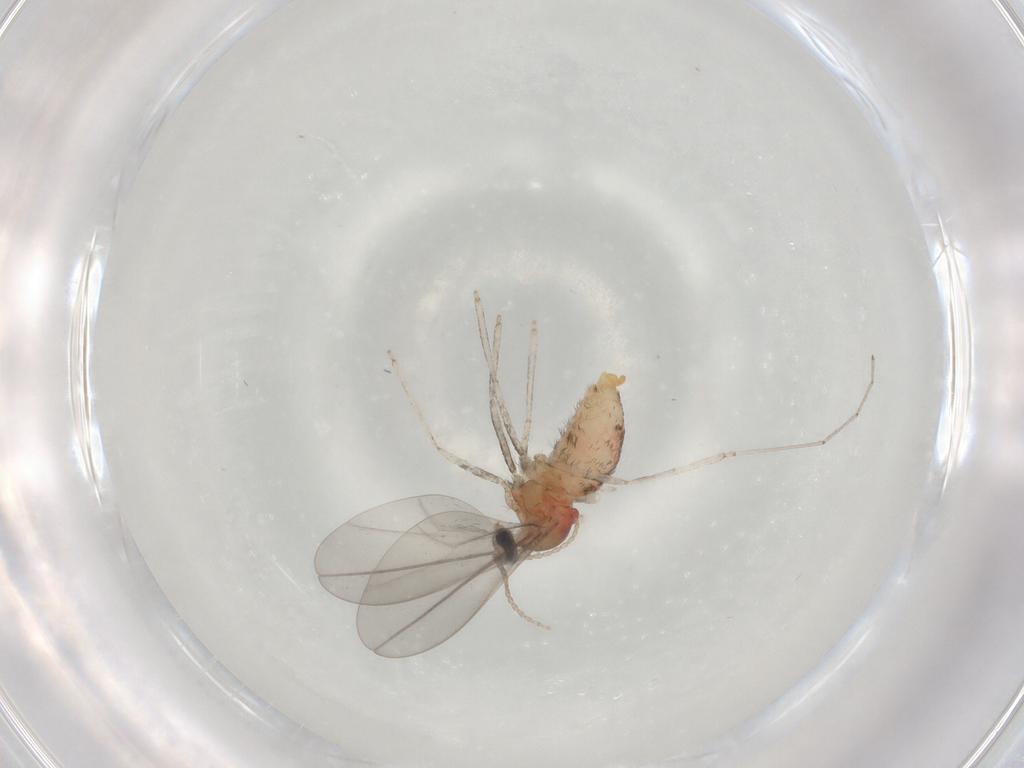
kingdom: Animalia
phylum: Arthropoda
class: Insecta
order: Diptera
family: Cecidomyiidae
